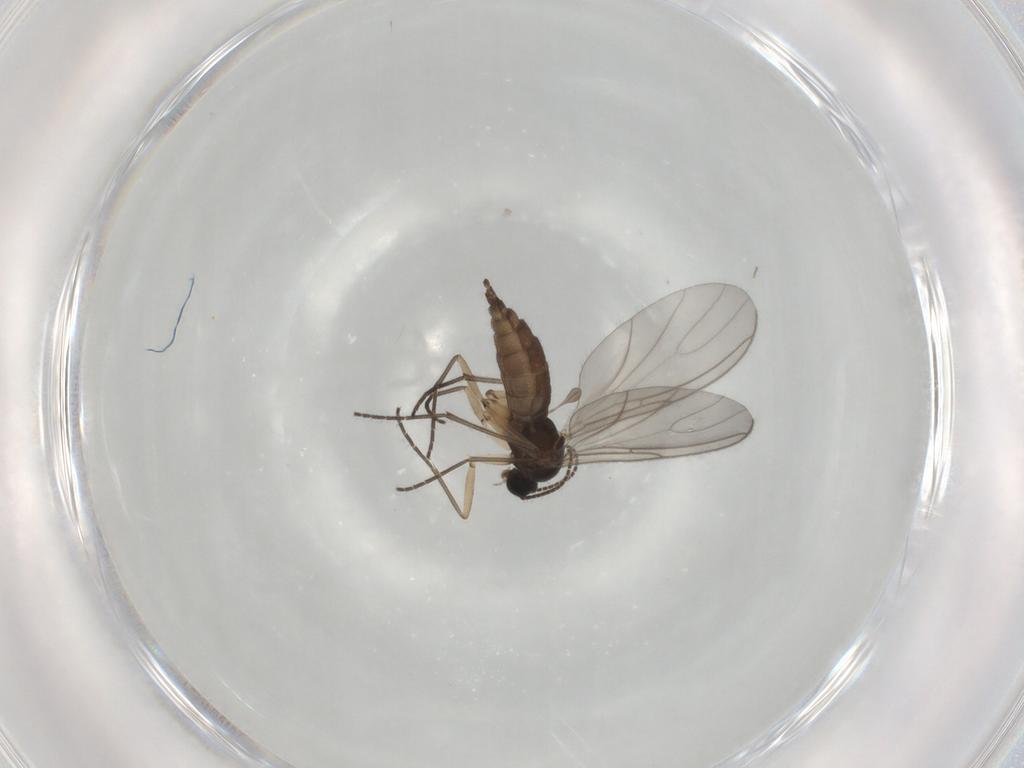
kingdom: Animalia
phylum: Arthropoda
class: Insecta
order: Diptera
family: Sciaridae
